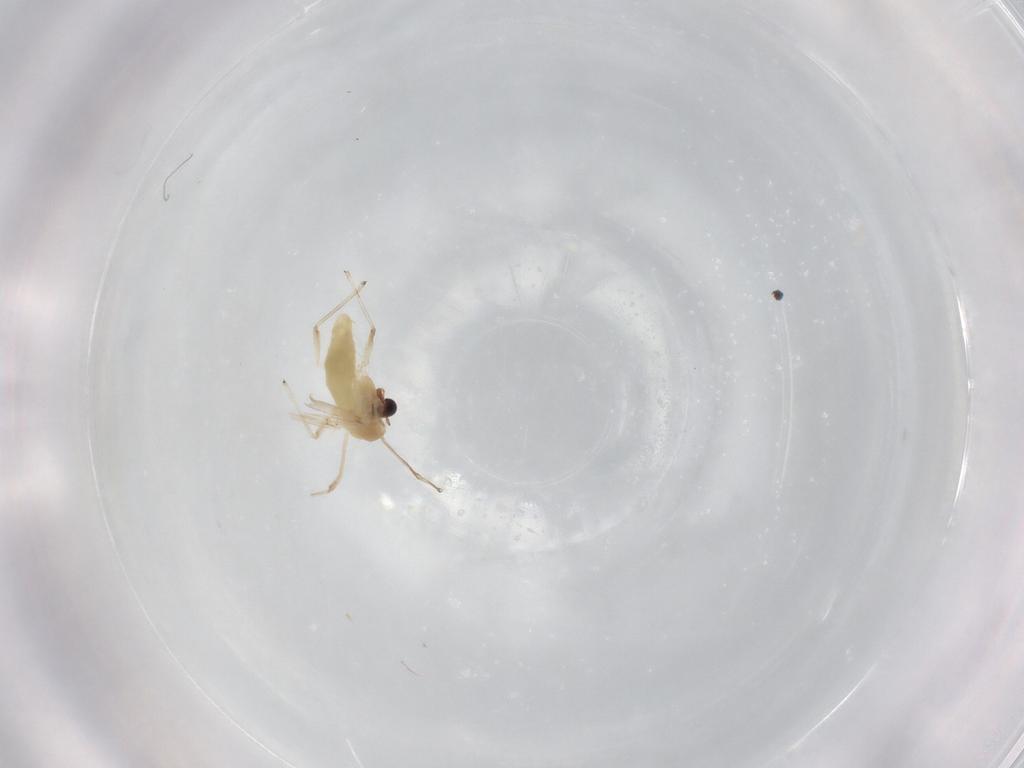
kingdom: Animalia
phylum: Arthropoda
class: Insecta
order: Diptera
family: Chironomidae
